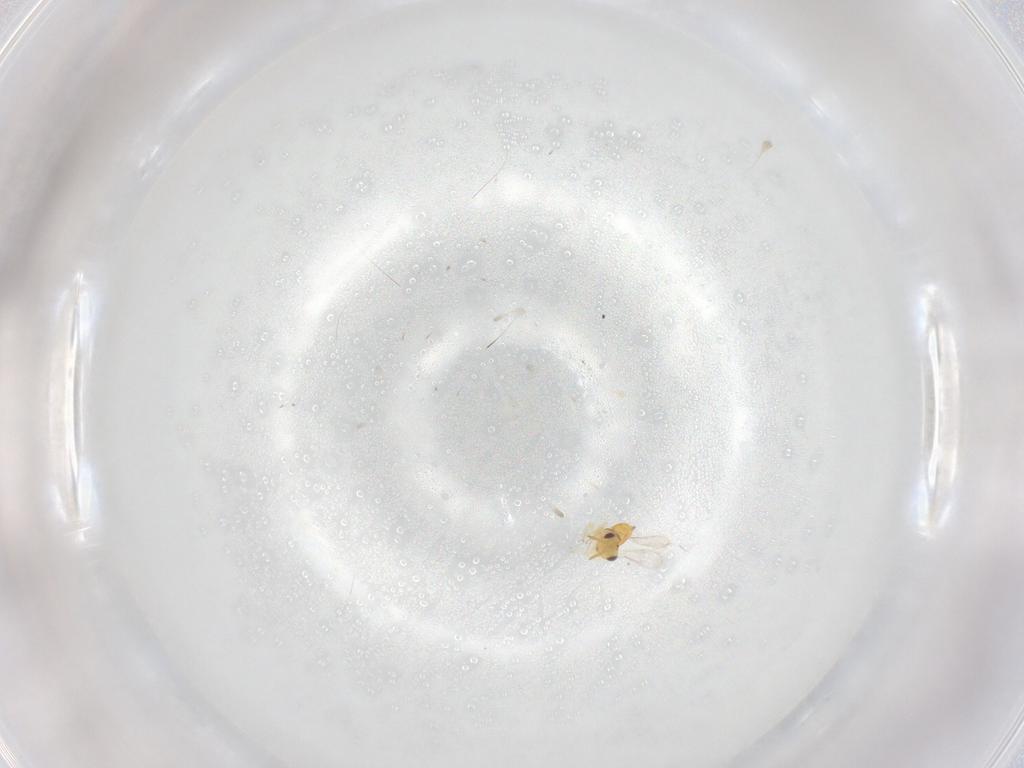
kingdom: Animalia
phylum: Arthropoda
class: Insecta
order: Hymenoptera
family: Aphelinidae
